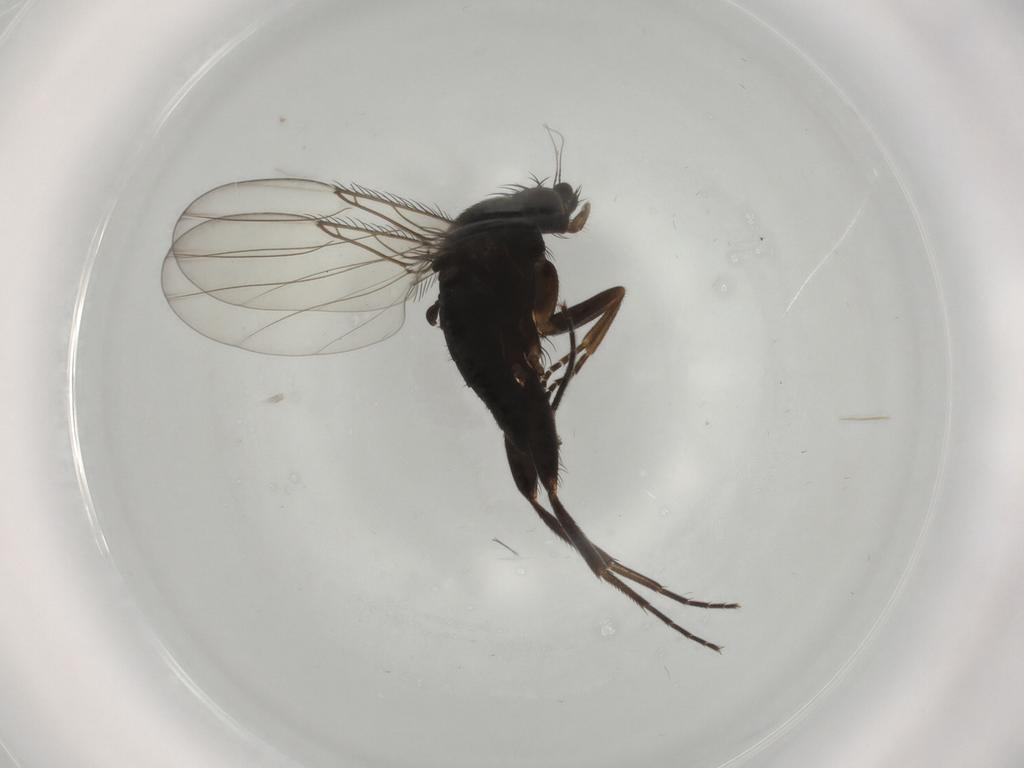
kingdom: Animalia
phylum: Arthropoda
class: Insecta
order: Diptera
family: Phoridae
